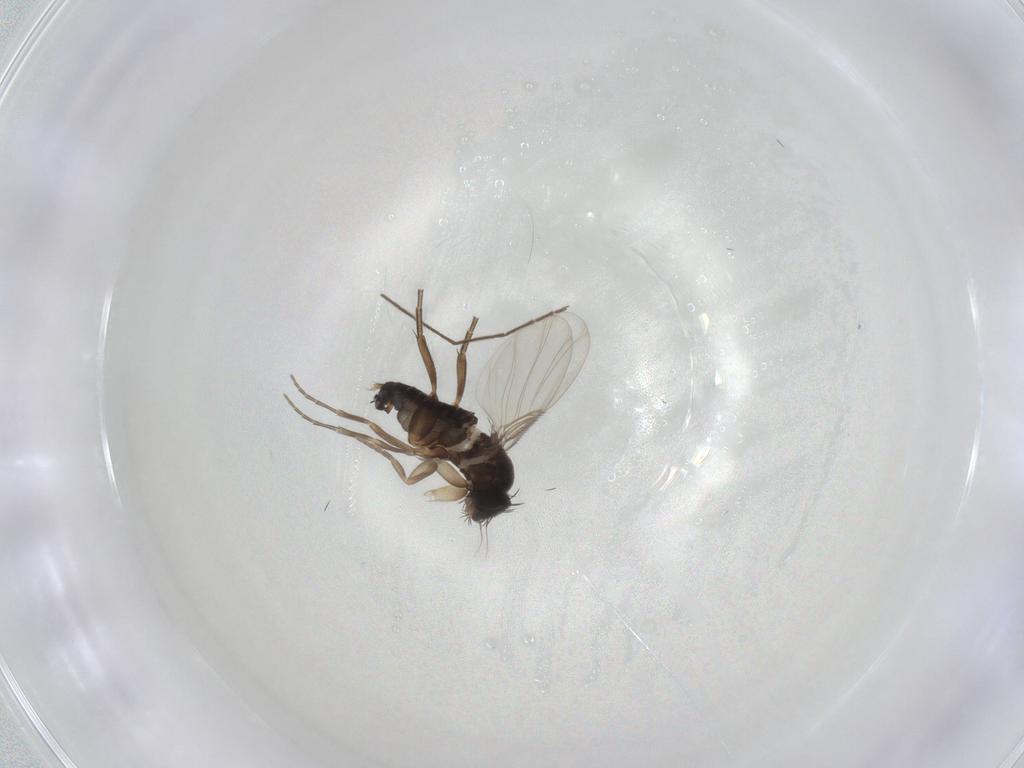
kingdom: Animalia
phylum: Arthropoda
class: Insecta
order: Diptera
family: Phoridae
